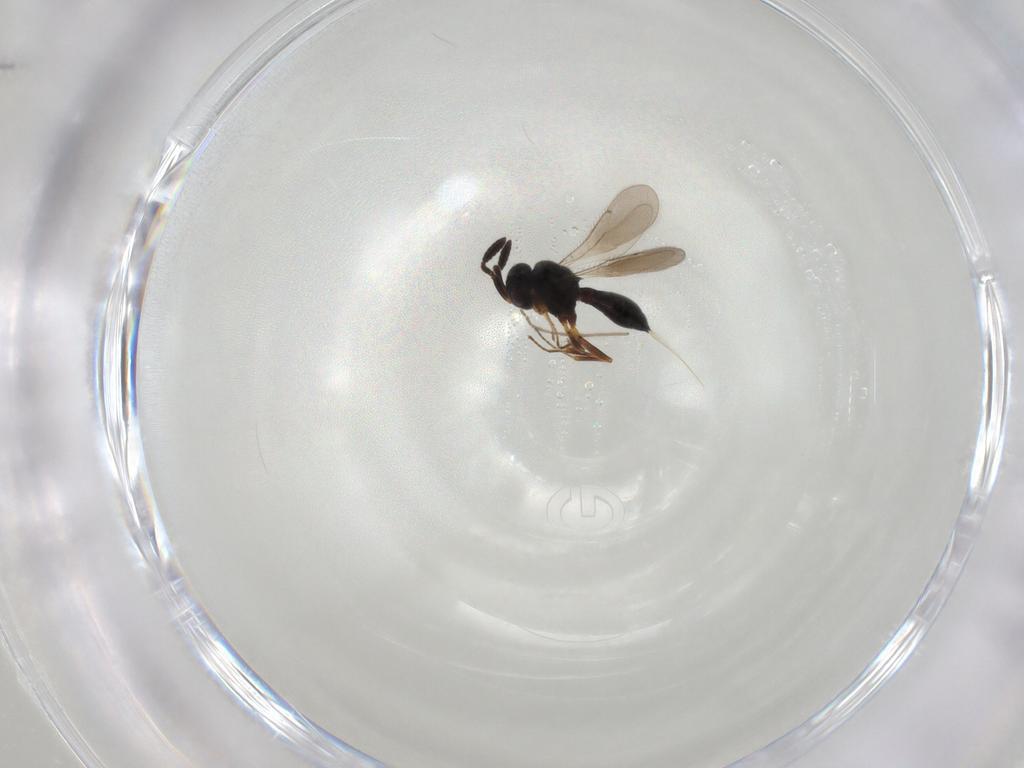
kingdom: Animalia
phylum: Arthropoda
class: Insecta
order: Hymenoptera
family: Scelionidae
